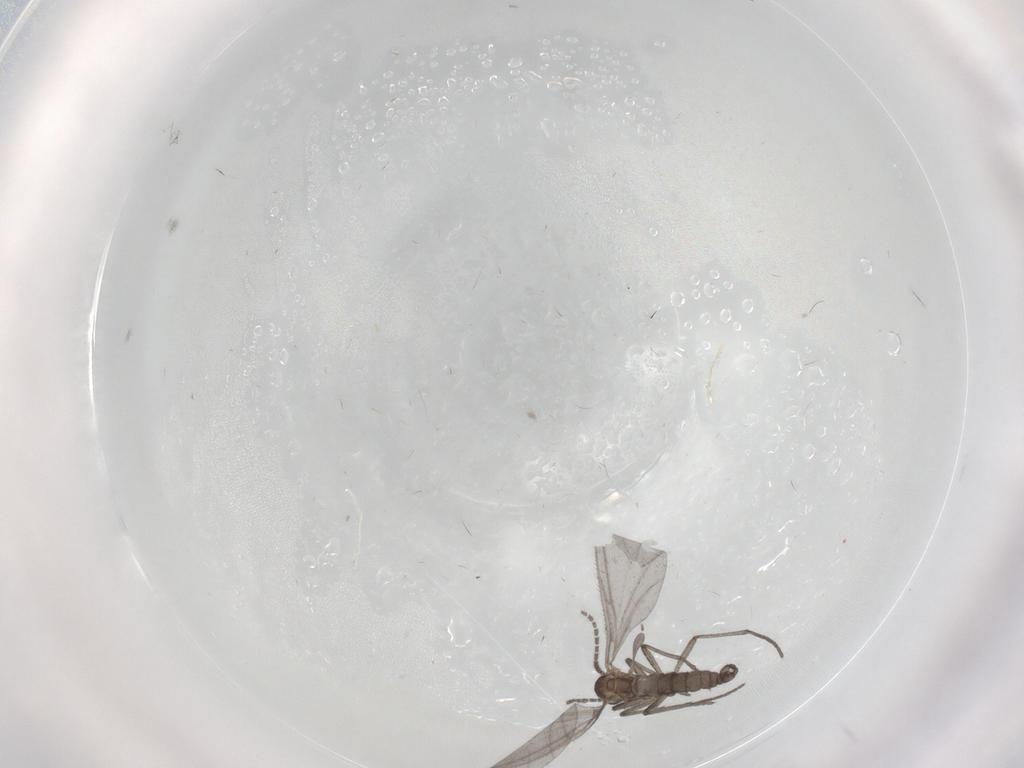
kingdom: Animalia
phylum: Arthropoda
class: Insecta
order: Diptera
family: Sciaridae
